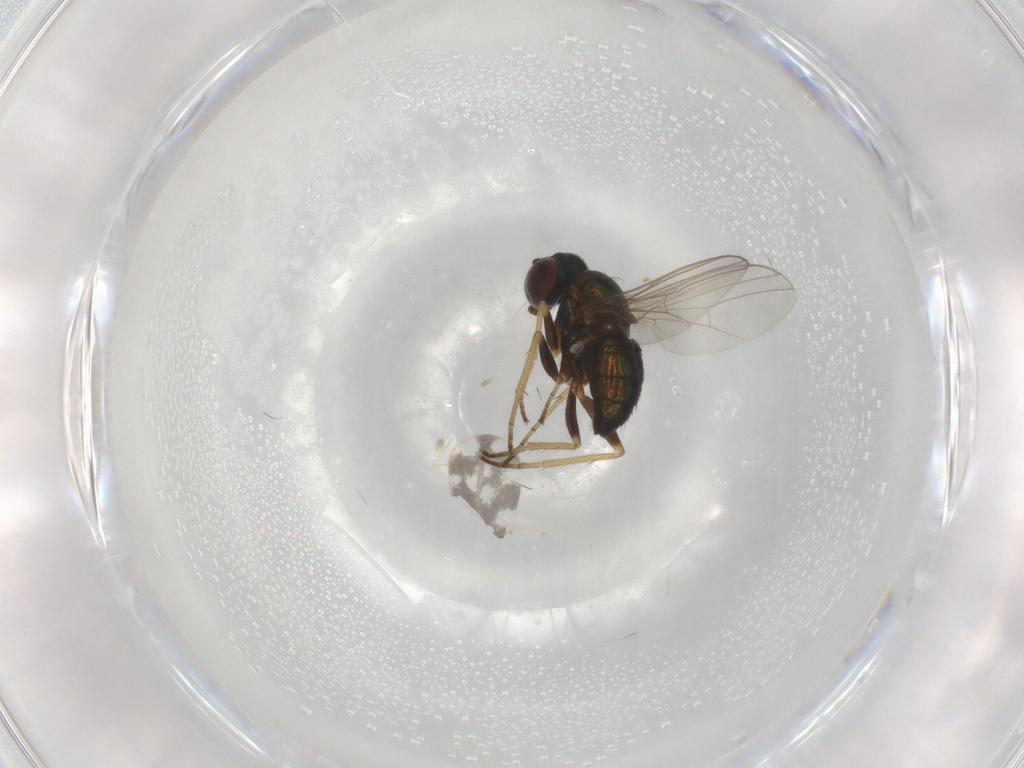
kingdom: Animalia
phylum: Arthropoda
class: Insecta
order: Diptera
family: Dolichopodidae
